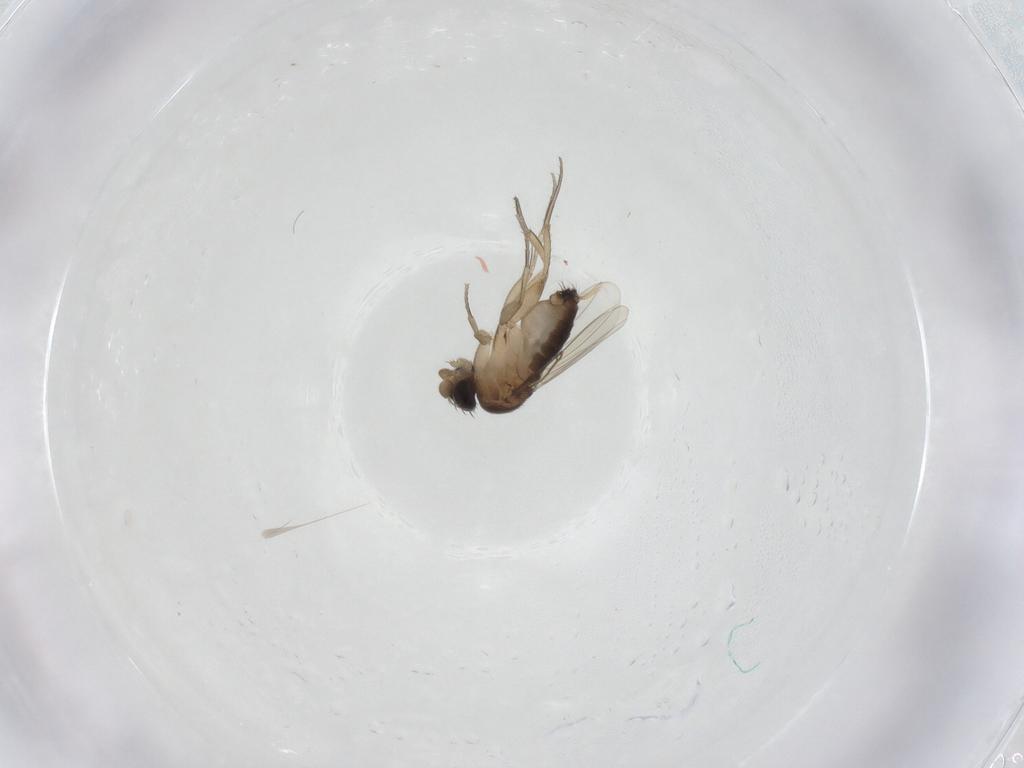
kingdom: Animalia
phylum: Arthropoda
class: Insecta
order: Diptera
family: Phoridae
